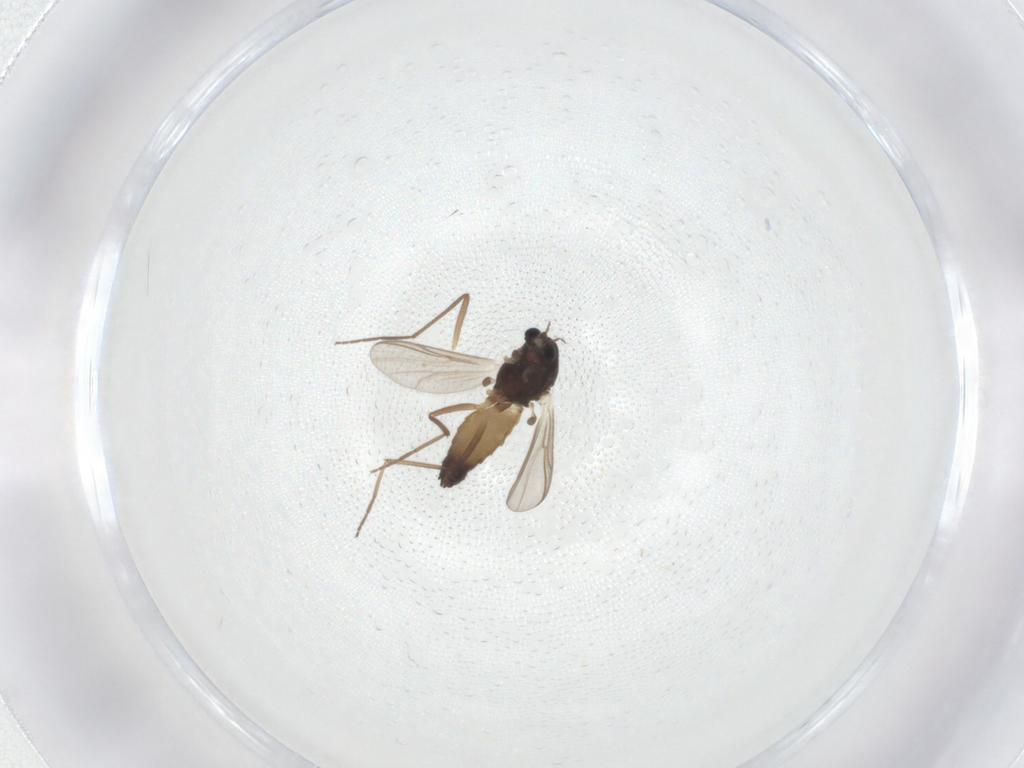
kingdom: Animalia
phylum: Arthropoda
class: Insecta
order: Diptera
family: Chironomidae
